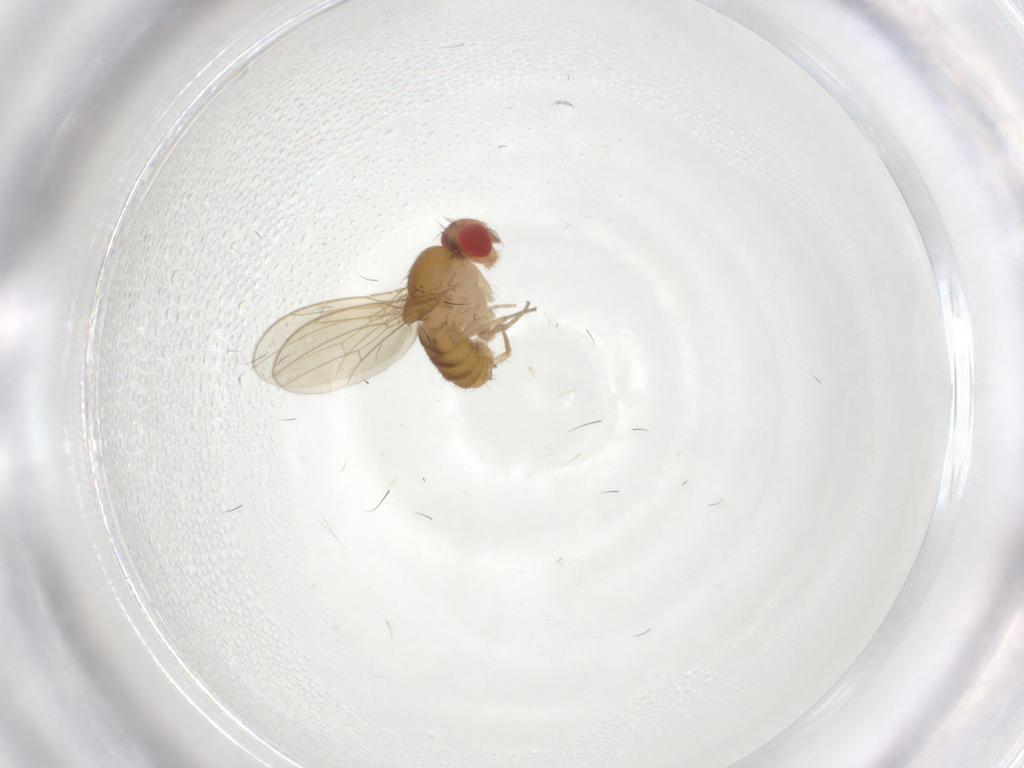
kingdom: Animalia
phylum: Arthropoda
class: Insecta
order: Diptera
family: Drosophilidae
